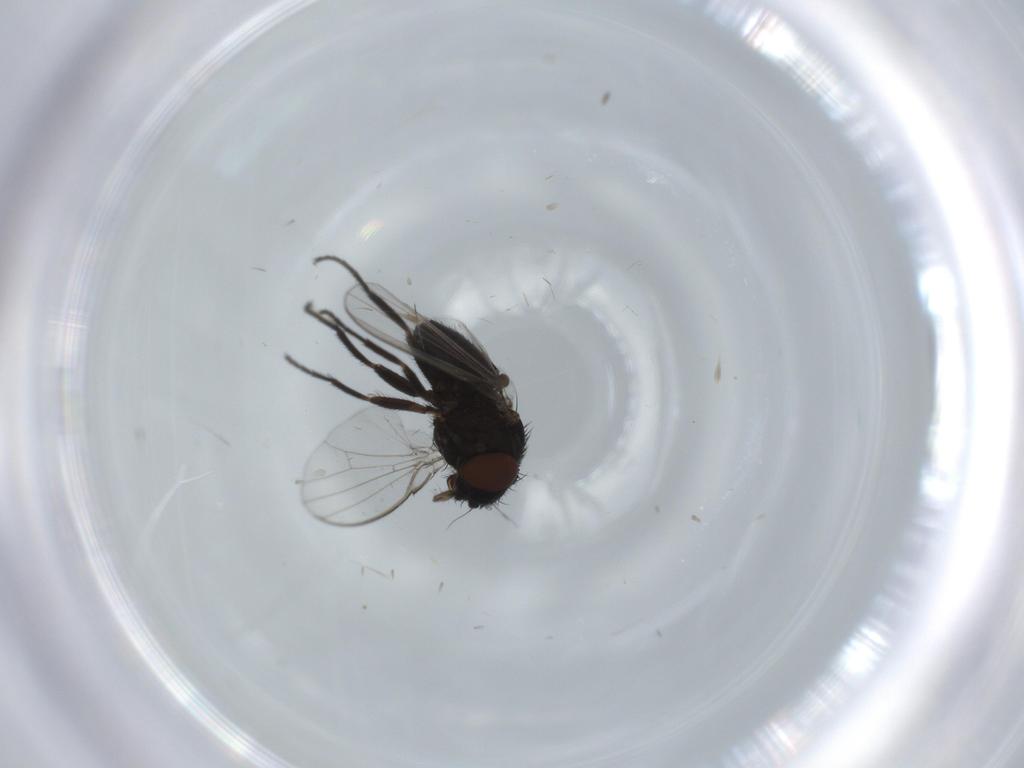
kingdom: Animalia
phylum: Arthropoda
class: Insecta
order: Diptera
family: Milichiidae
